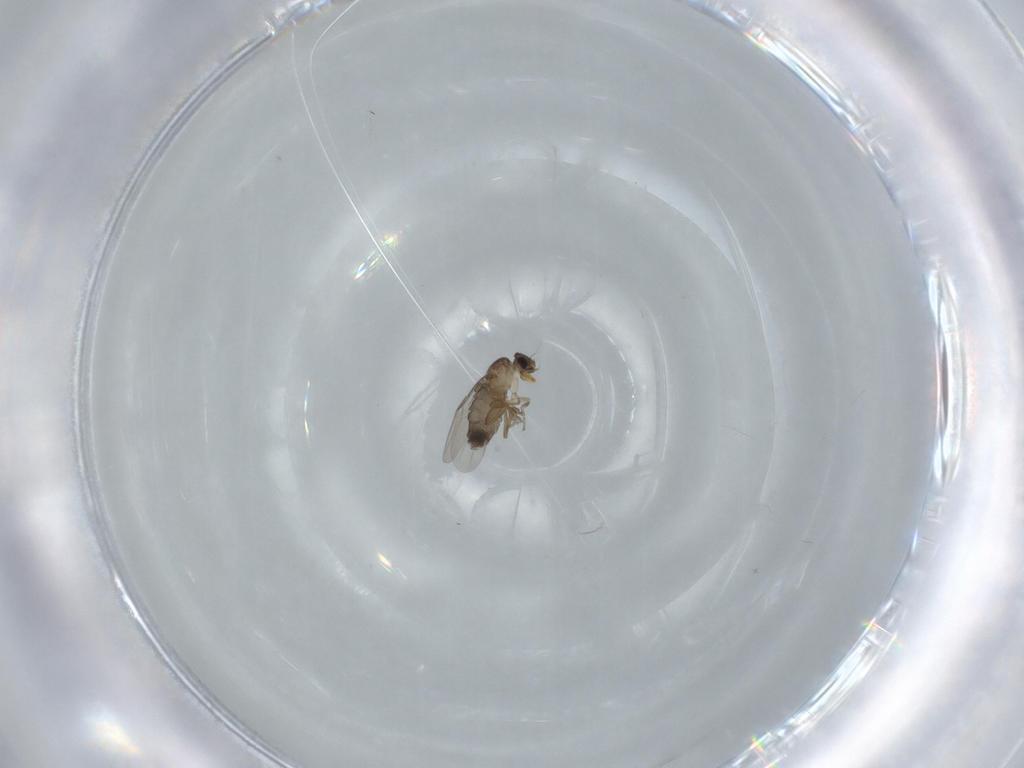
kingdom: Animalia
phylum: Arthropoda
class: Insecta
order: Diptera
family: Phoridae
